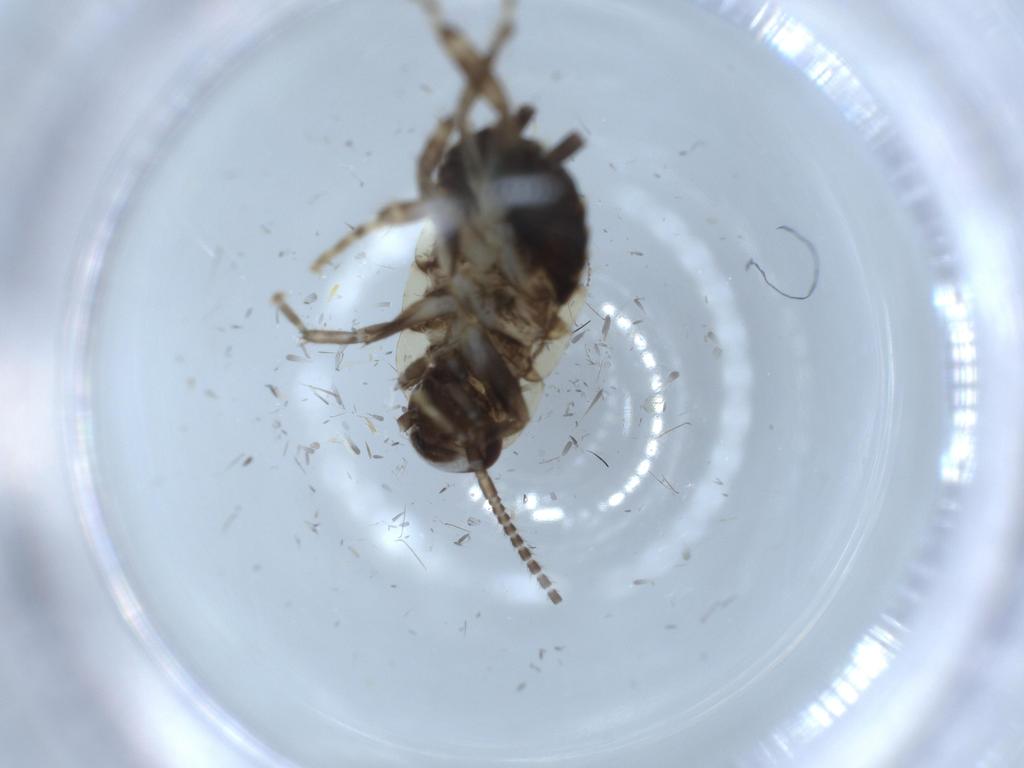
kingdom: Animalia
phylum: Arthropoda
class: Insecta
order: Blattodea
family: Ectobiidae
